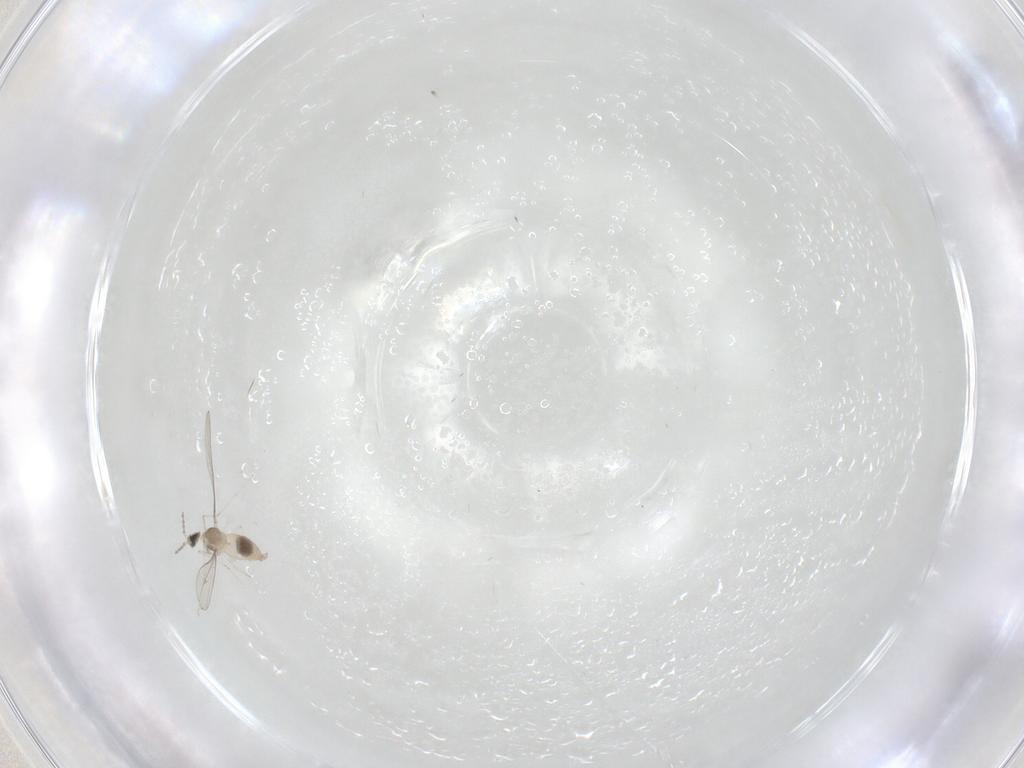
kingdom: Animalia
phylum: Arthropoda
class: Insecta
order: Diptera
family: Cecidomyiidae
